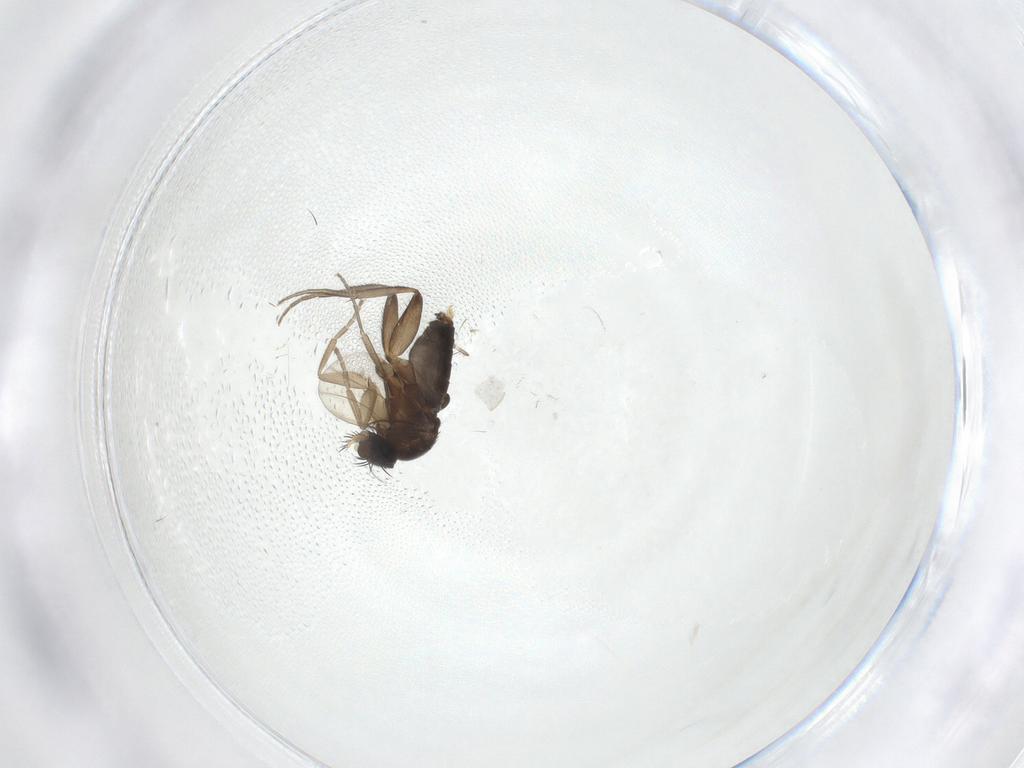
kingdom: Animalia
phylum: Arthropoda
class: Insecta
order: Diptera
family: Phoridae
